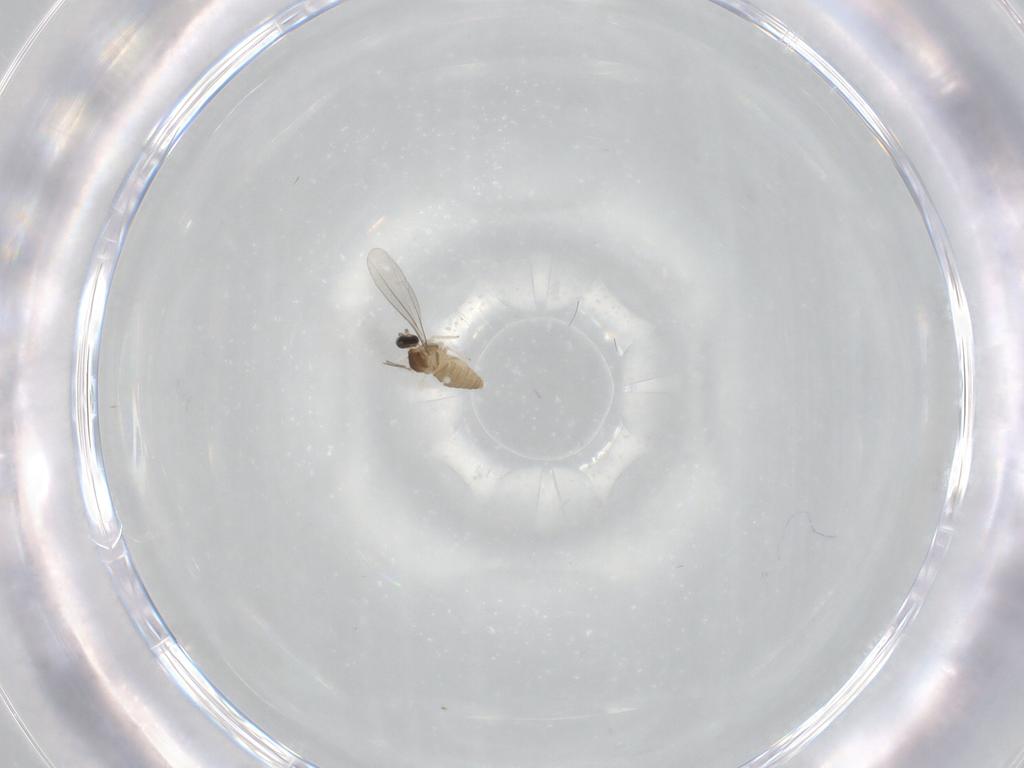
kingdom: Animalia
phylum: Arthropoda
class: Insecta
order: Diptera
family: Cecidomyiidae
